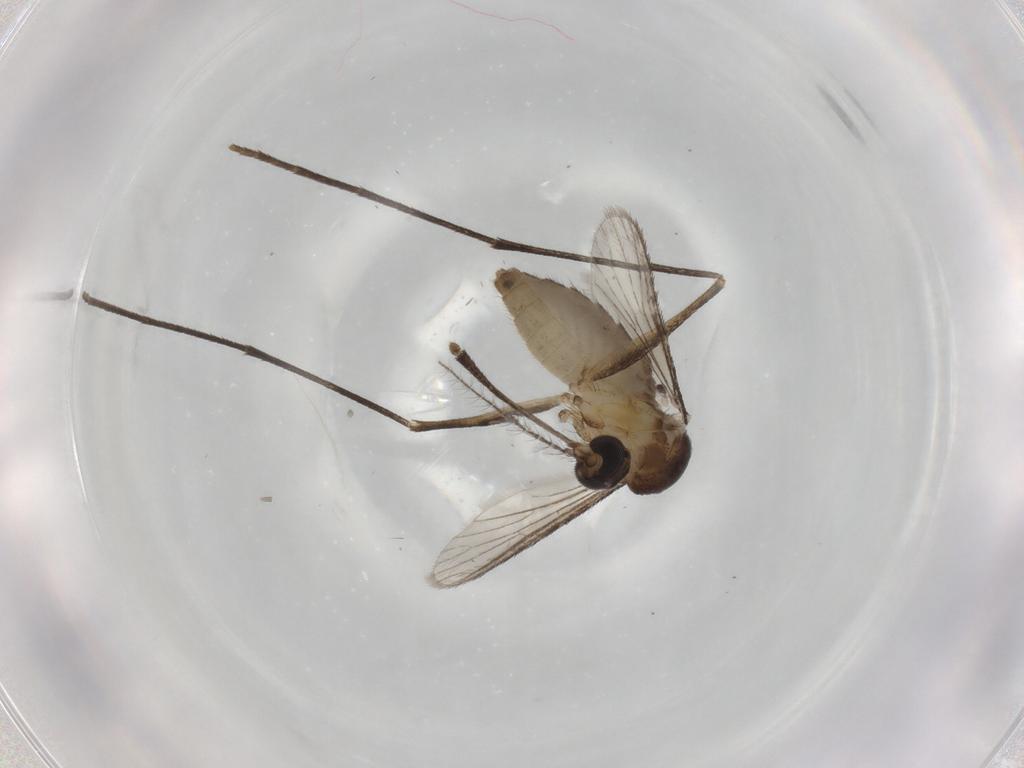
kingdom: Animalia
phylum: Arthropoda
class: Insecta
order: Diptera
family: Culicidae
